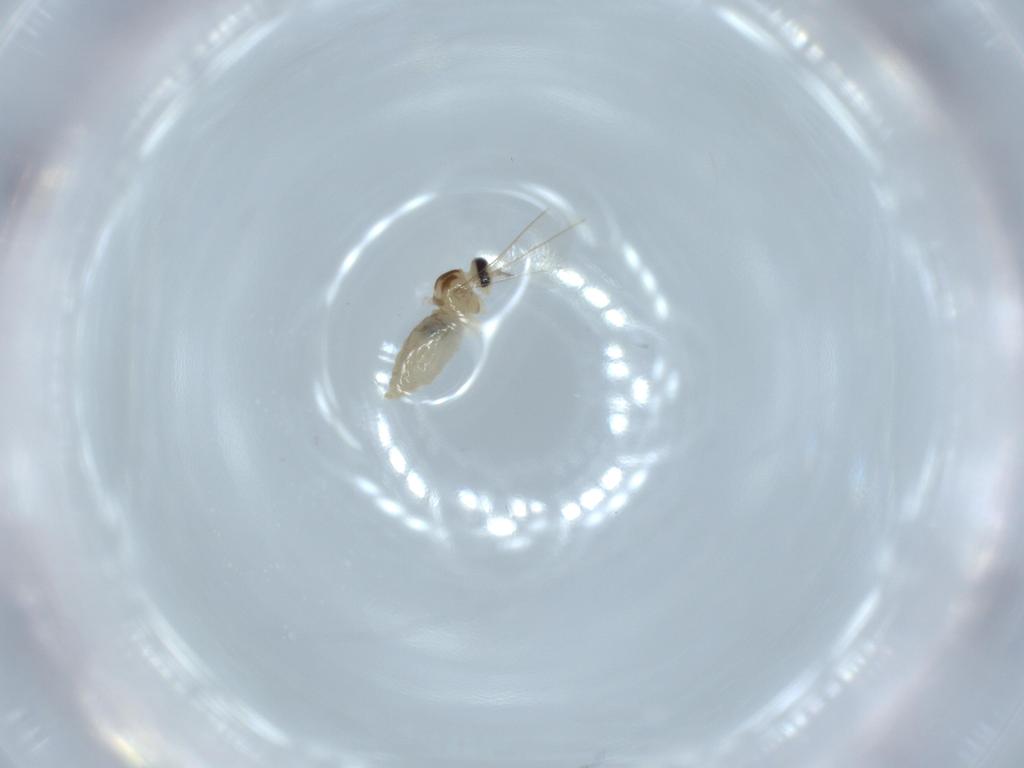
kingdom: Animalia
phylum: Arthropoda
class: Insecta
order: Diptera
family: Cecidomyiidae
